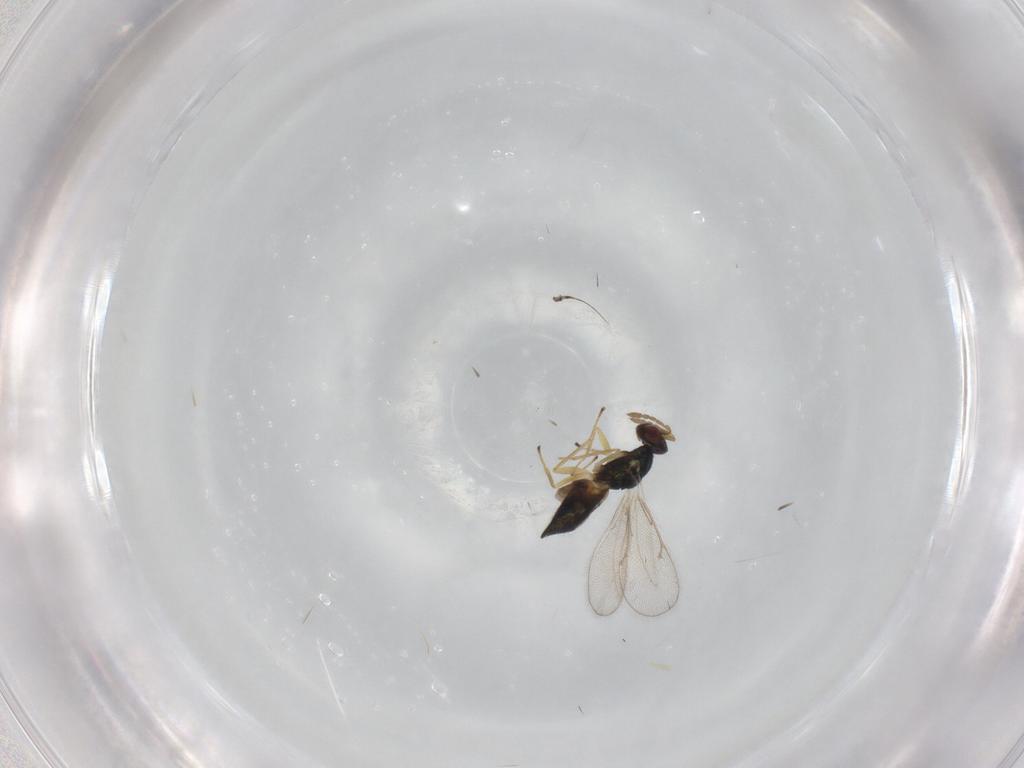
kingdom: Animalia
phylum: Arthropoda
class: Insecta
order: Hymenoptera
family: Eulophidae
